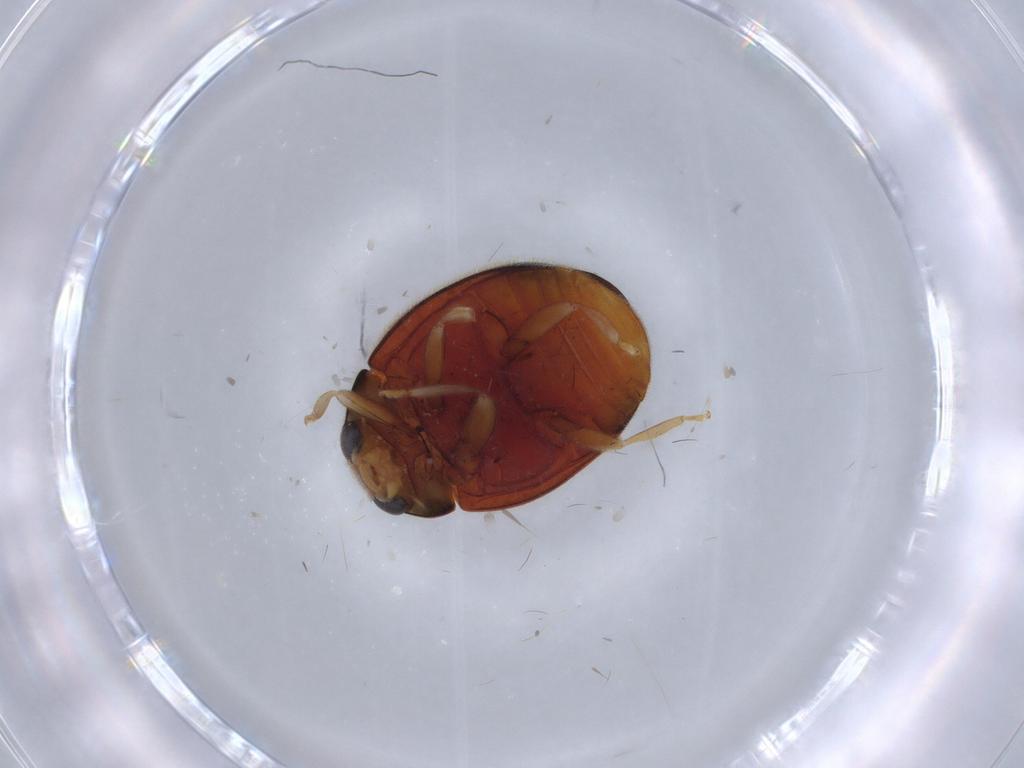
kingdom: Animalia
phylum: Arthropoda
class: Insecta
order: Coleoptera
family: Coccinellidae
